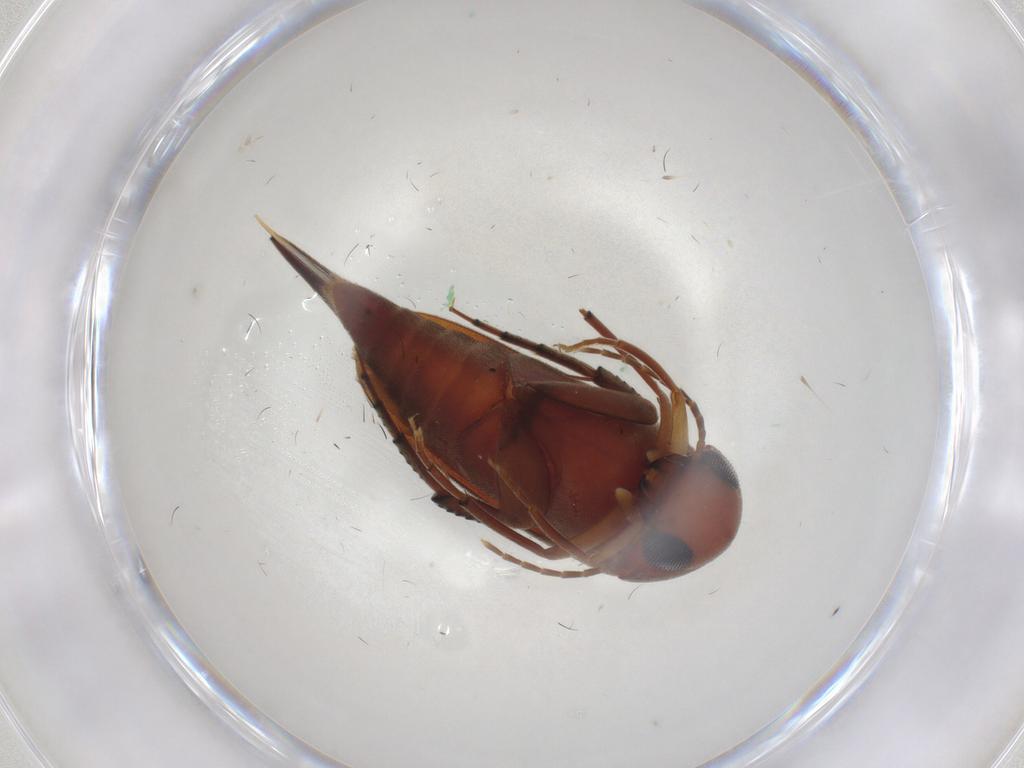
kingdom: Animalia
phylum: Arthropoda
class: Insecta
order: Coleoptera
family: Mordellidae
